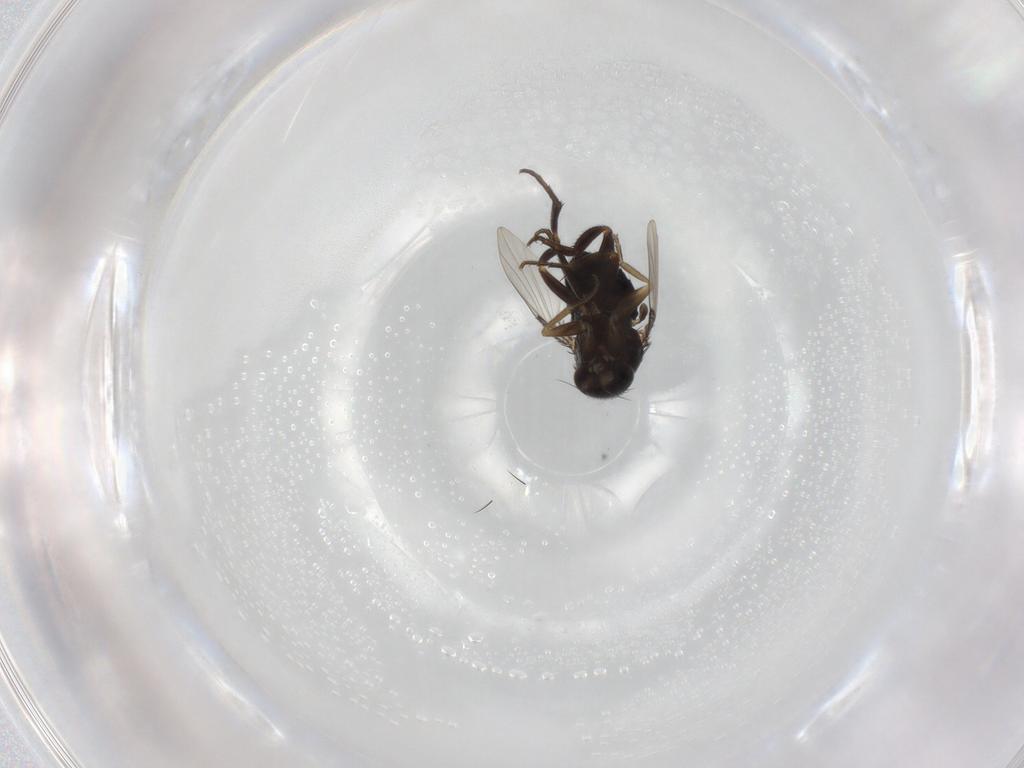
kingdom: Animalia
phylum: Arthropoda
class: Insecta
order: Diptera
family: Phoridae
